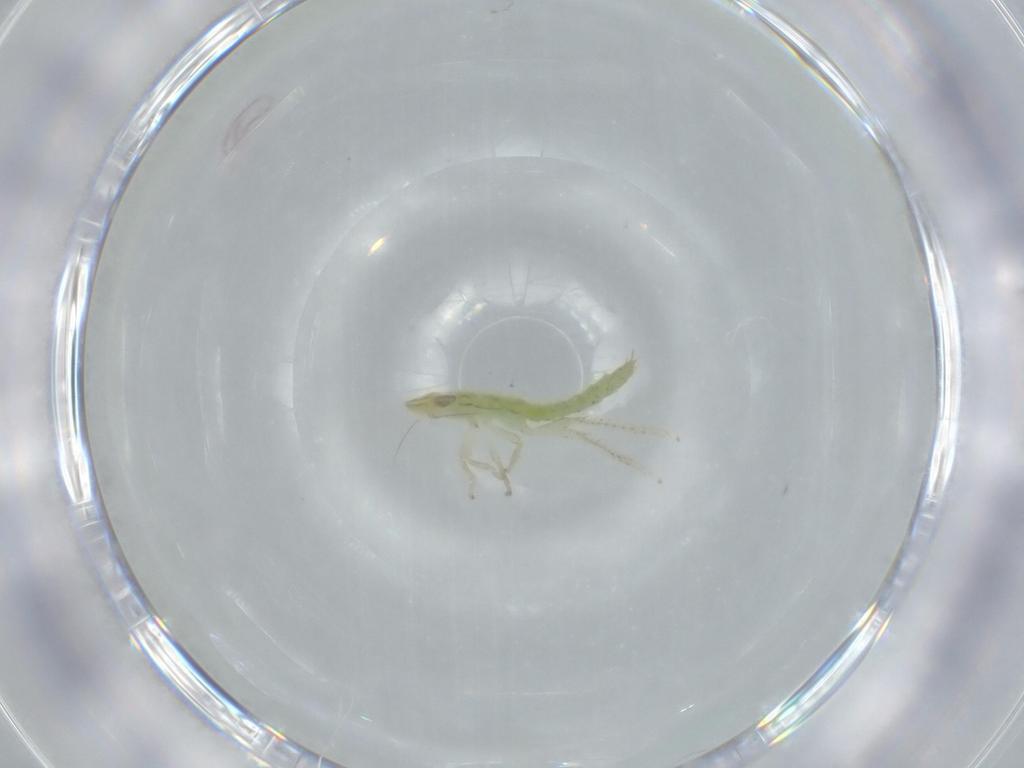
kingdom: Animalia
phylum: Arthropoda
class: Insecta
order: Hemiptera
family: Cicadellidae
